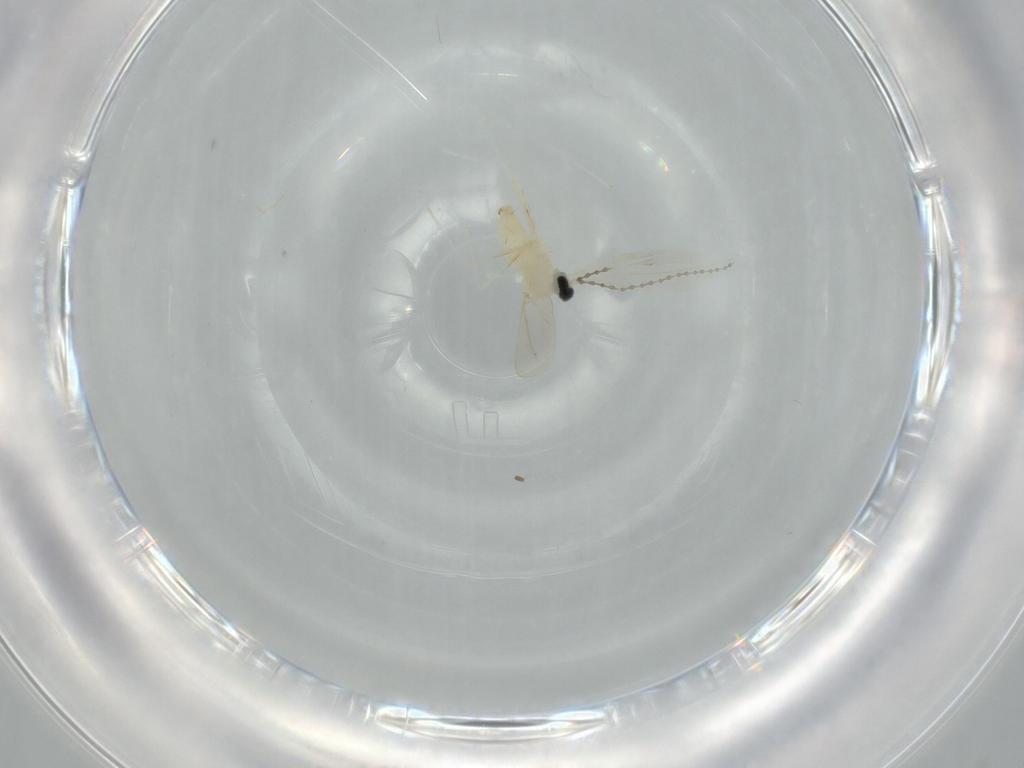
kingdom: Animalia
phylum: Arthropoda
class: Insecta
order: Diptera
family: Cecidomyiidae
